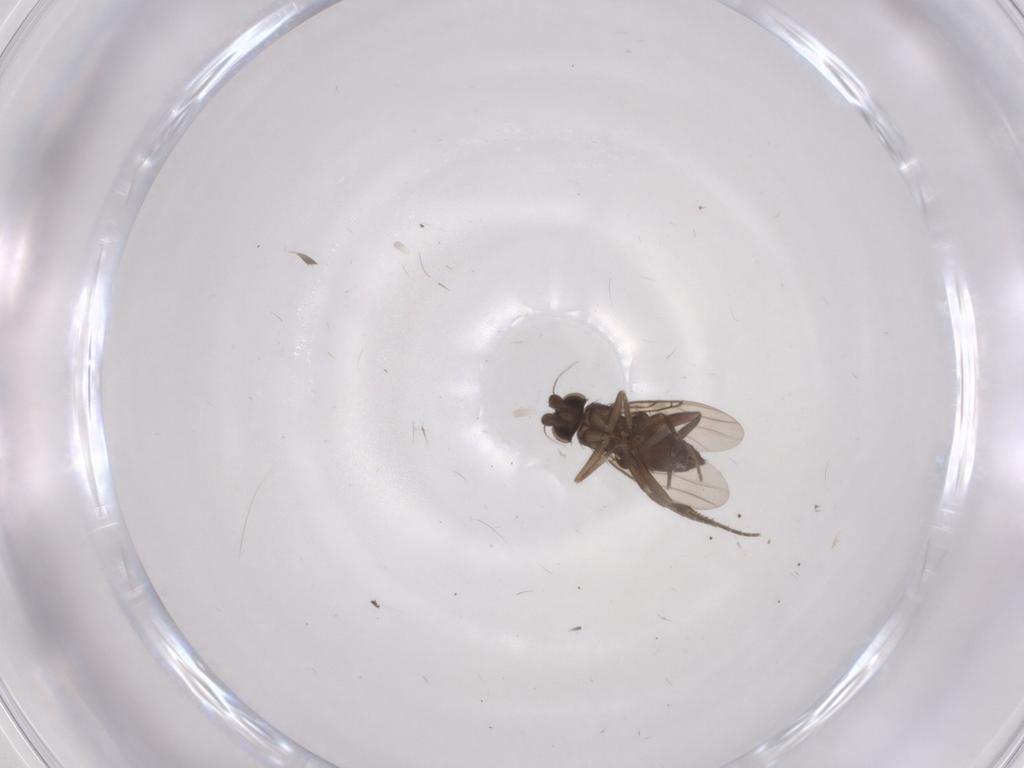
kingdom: Animalia
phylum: Arthropoda
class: Insecta
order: Diptera
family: Phoridae
